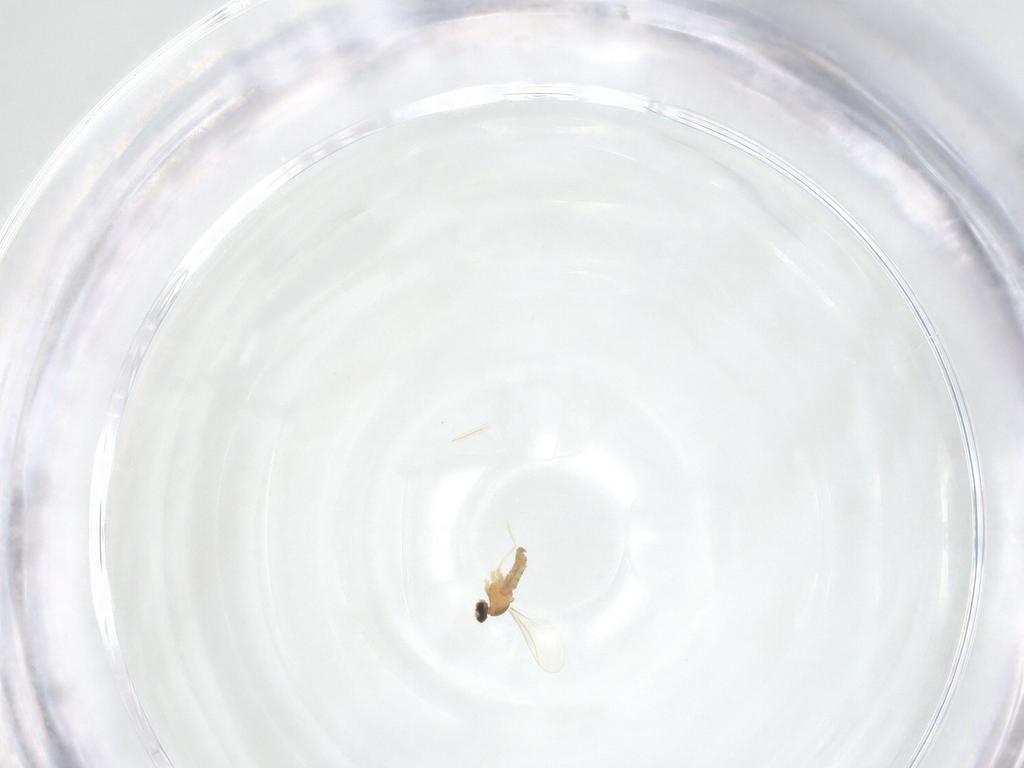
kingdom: Animalia
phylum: Arthropoda
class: Insecta
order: Diptera
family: Cecidomyiidae
